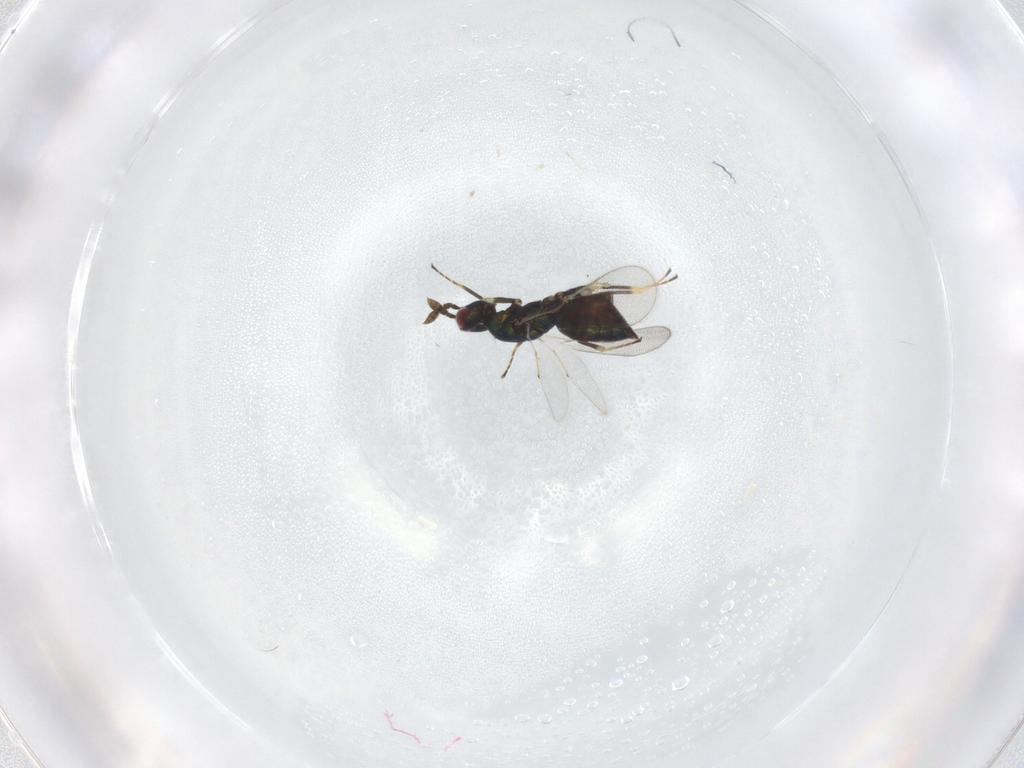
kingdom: Animalia
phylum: Arthropoda
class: Insecta
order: Hymenoptera
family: Eulophidae
